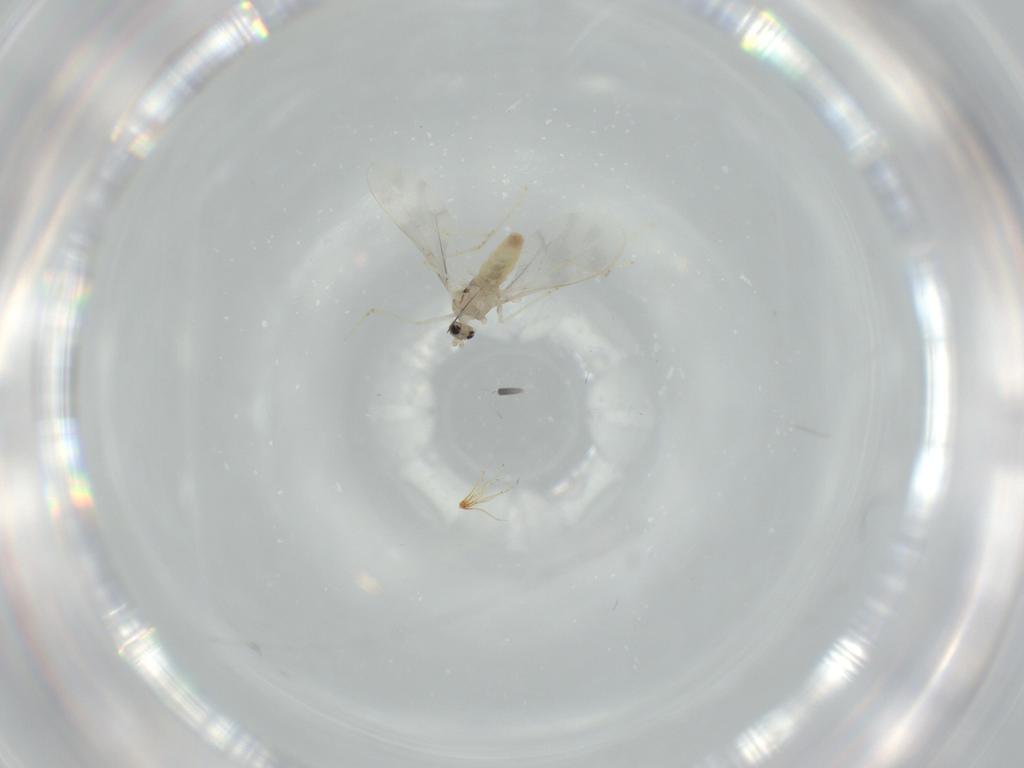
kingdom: Animalia
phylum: Arthropoda
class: Insecta
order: Diptera
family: Cecidomyiidae
